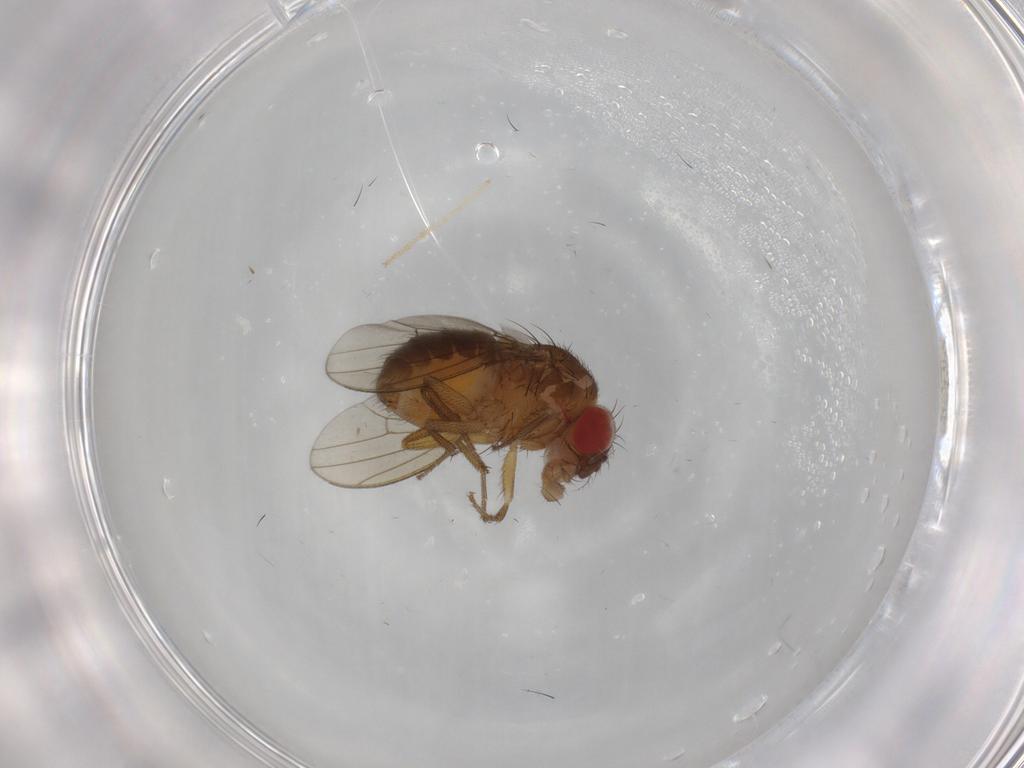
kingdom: Animalia
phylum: Arthropoda
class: Insecta
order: Diptera
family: Drosophilidae
